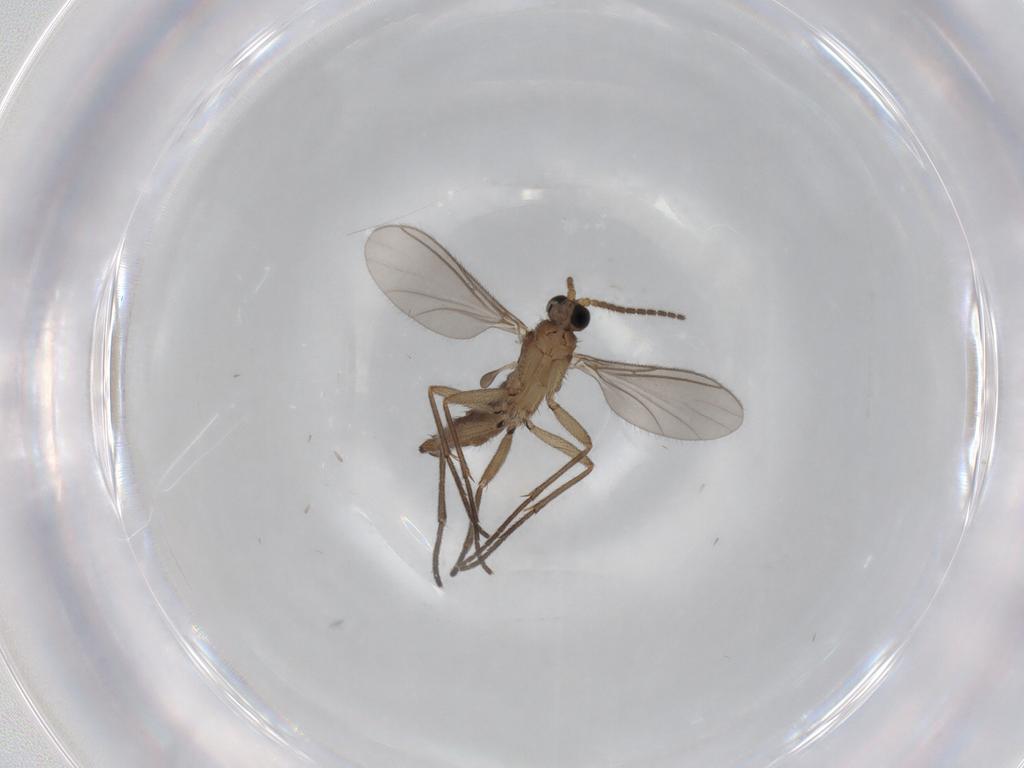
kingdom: Animalia
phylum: Arthropoda
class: Insecta
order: Diptera
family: Sciaridae
